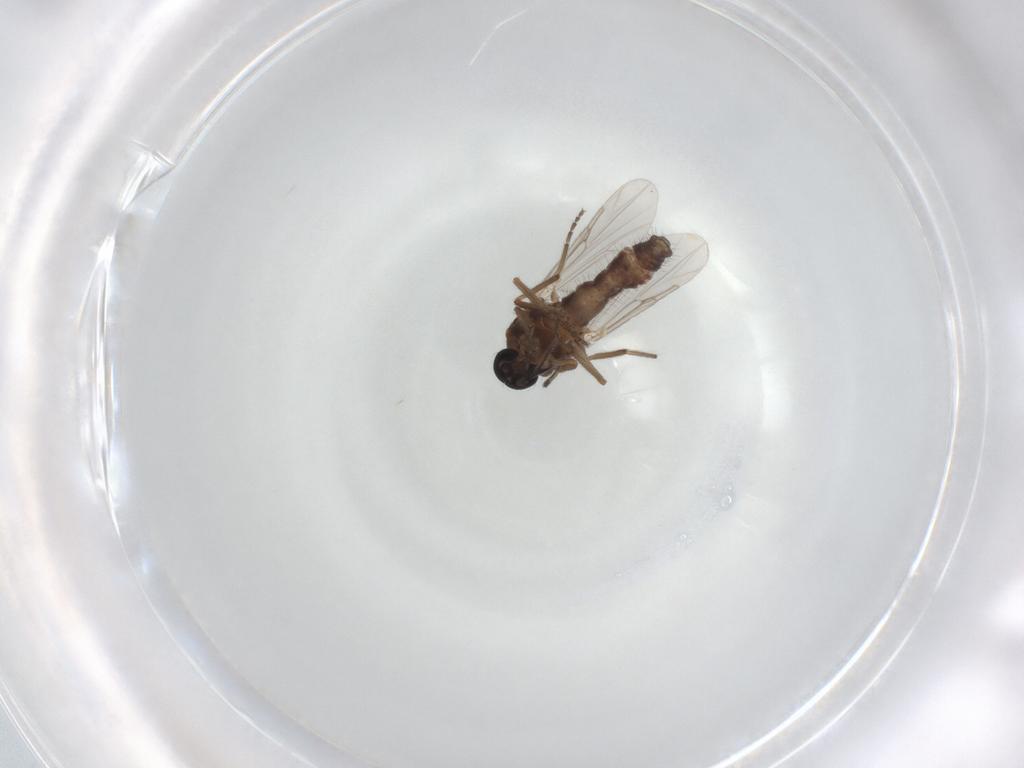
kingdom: Animalia
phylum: Arthropoda
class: Insecta
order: Diptera
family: Ceratopogonidae
